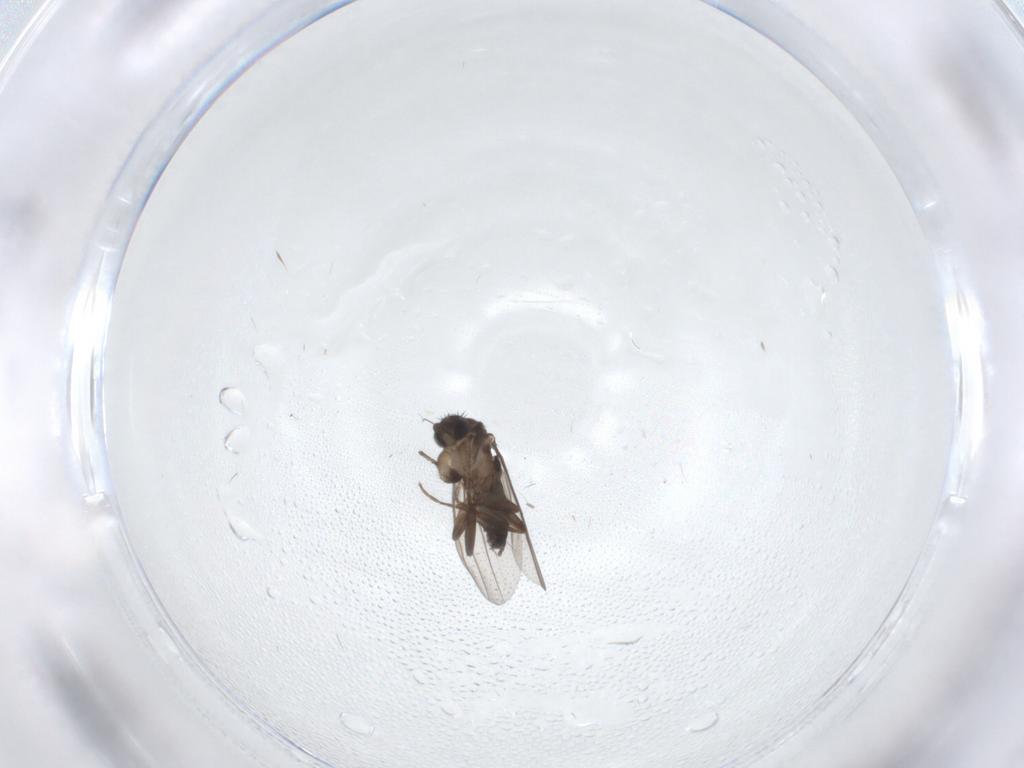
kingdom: Animalia
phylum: Arthropoda
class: Insecta
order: Diptera
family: Phoridae
